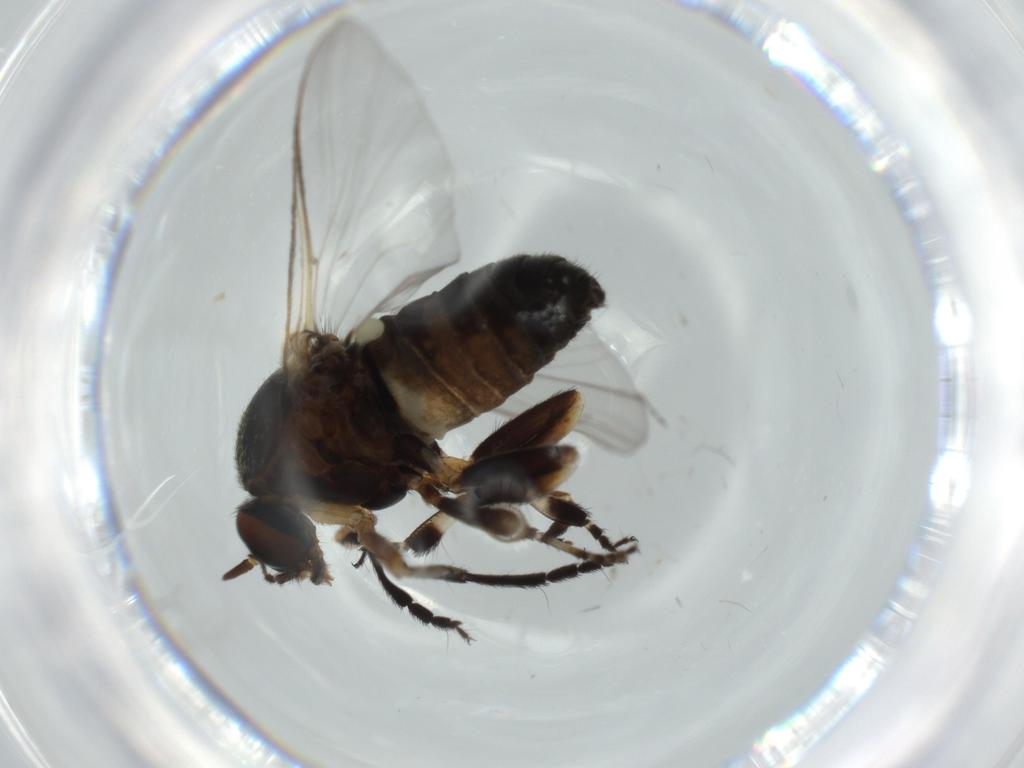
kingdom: Animalia
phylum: Arthropoda
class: Insecta
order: Diptera
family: Milichiidae
